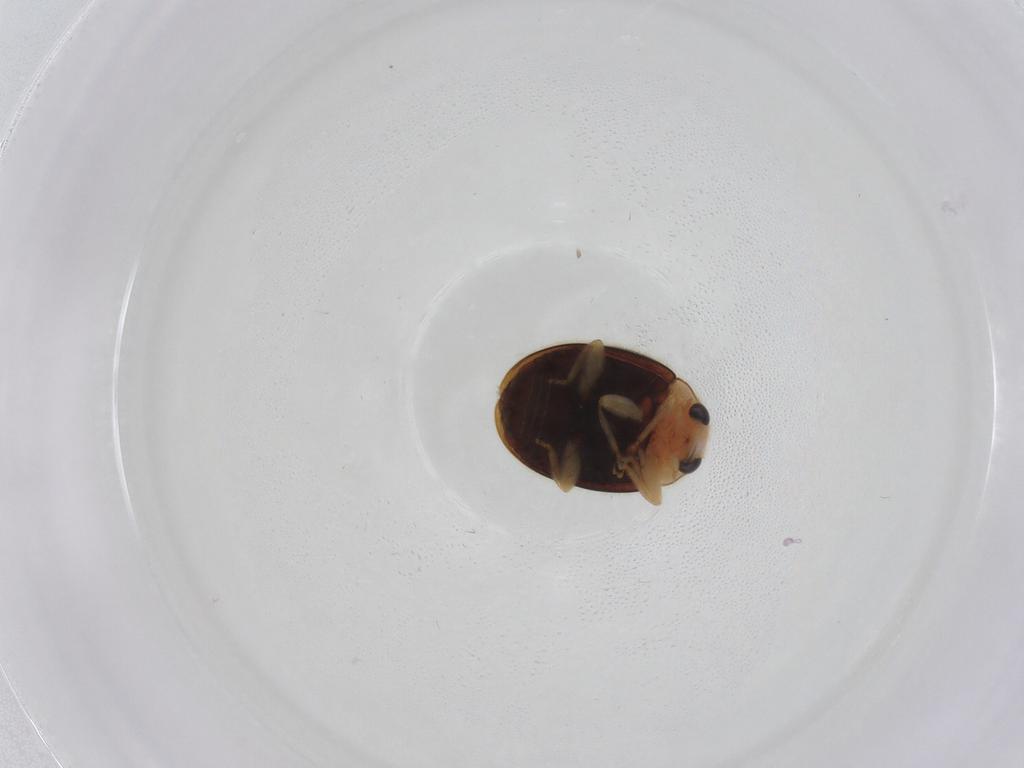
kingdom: Animalia
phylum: Arthropoda
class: Insecta
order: Coleoptera
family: Coccinellidae
